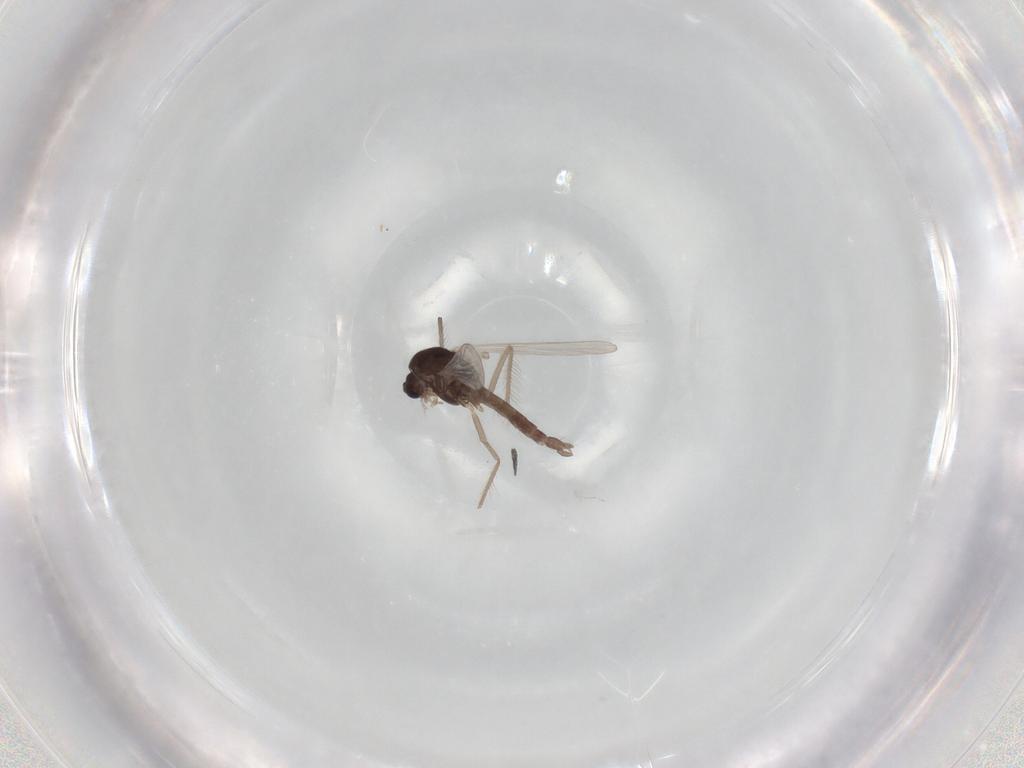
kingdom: Animalia
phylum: Arthropoda
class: Insecta
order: Diptera
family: Chironomidae
